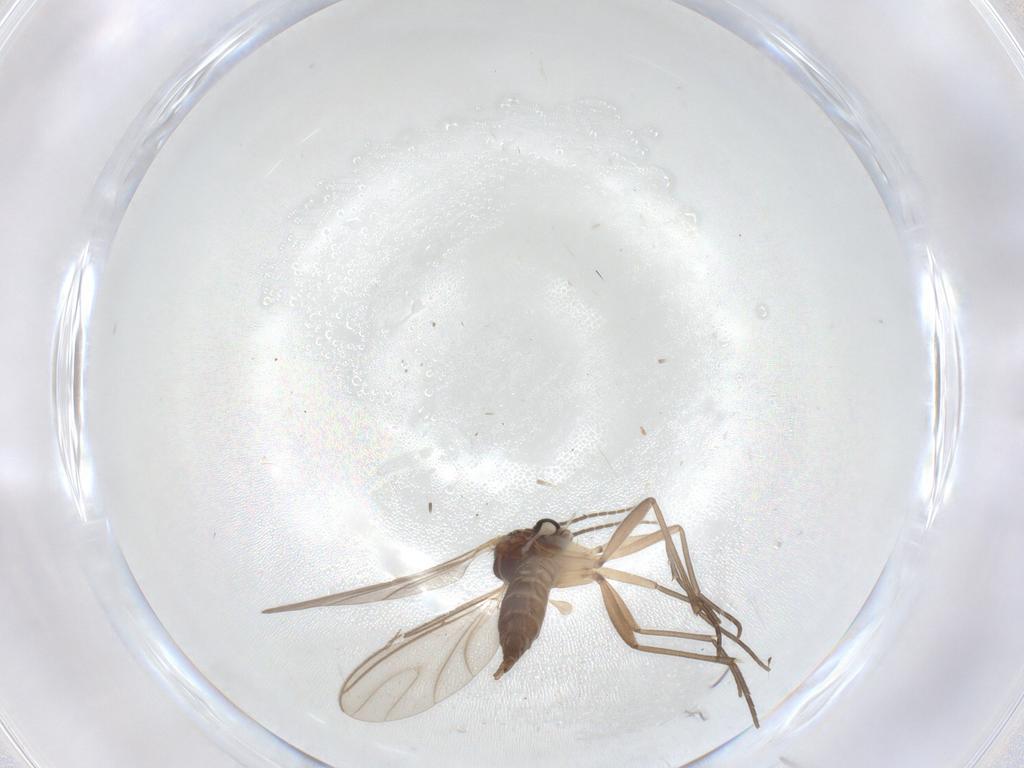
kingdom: Animalia
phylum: Arthropoda
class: Insecta
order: Diptera
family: Sciaridae
